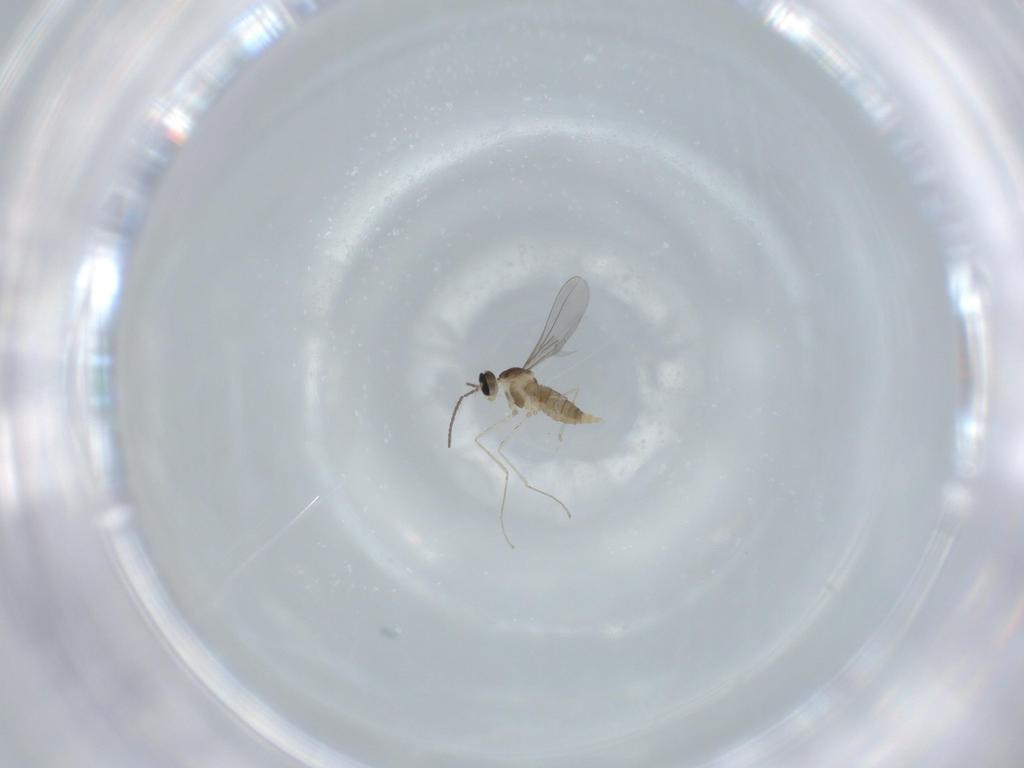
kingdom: Animalia
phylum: Arthropoda
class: Insecta
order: Diptera
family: Cecidomyiidae
